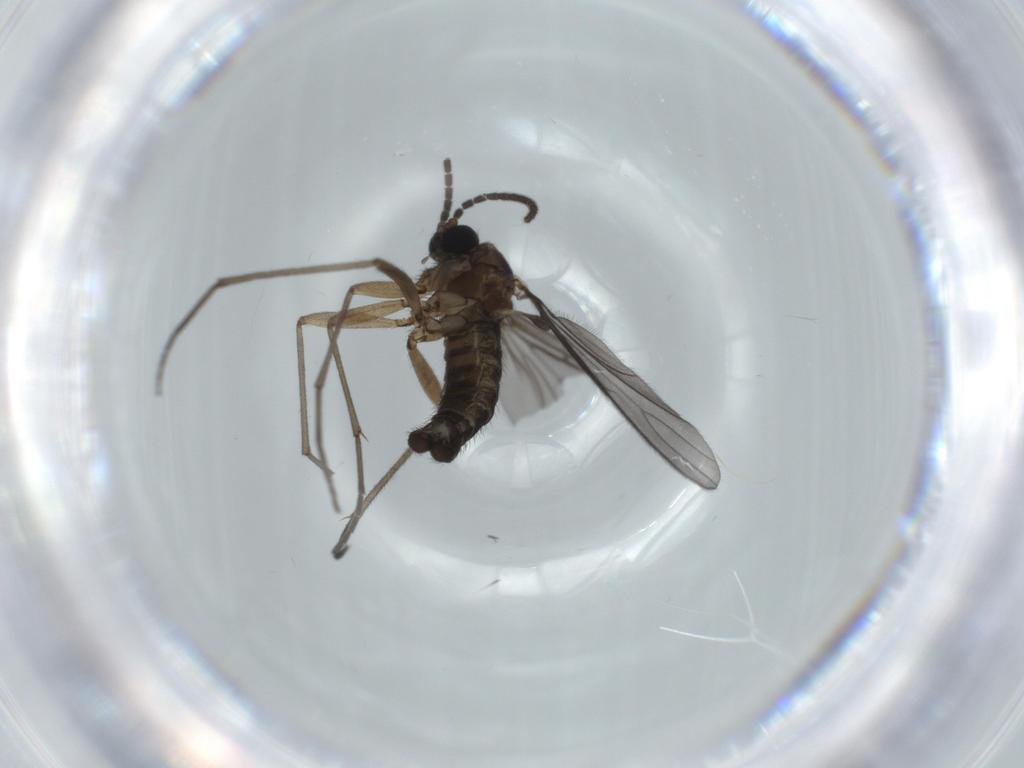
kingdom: Animalia
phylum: Arthropoda
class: Insecta
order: Diptera
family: Sciaridae
